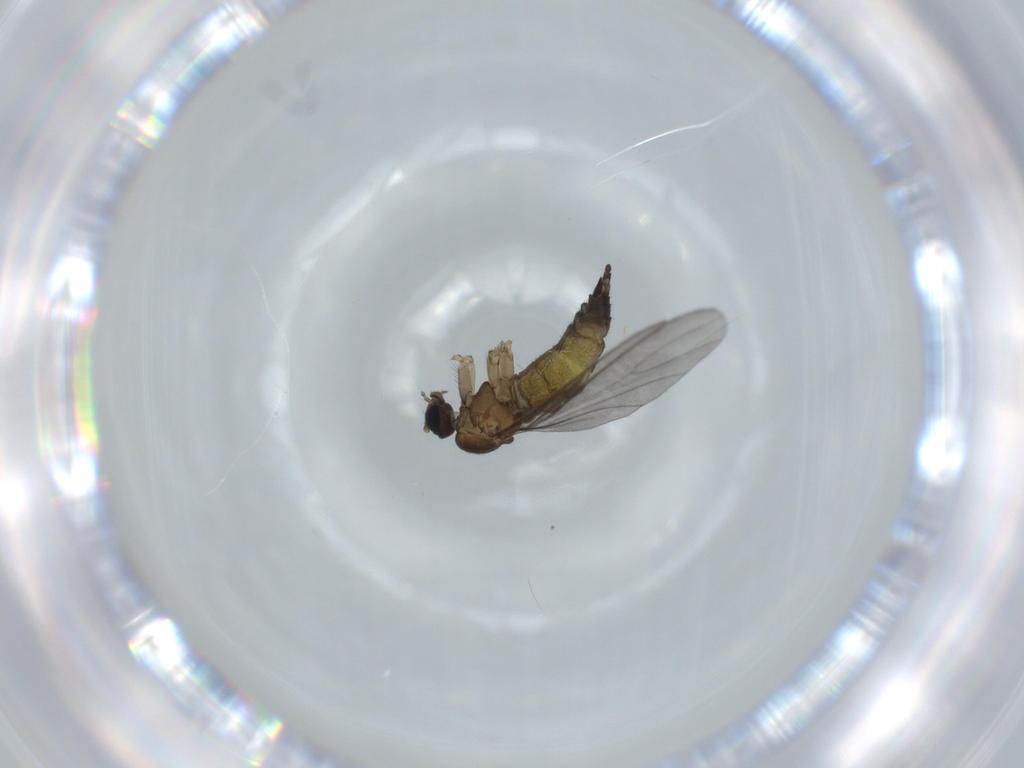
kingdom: Animalia
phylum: Arthropoda
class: Insecta
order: Diptera
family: Sciaridae
